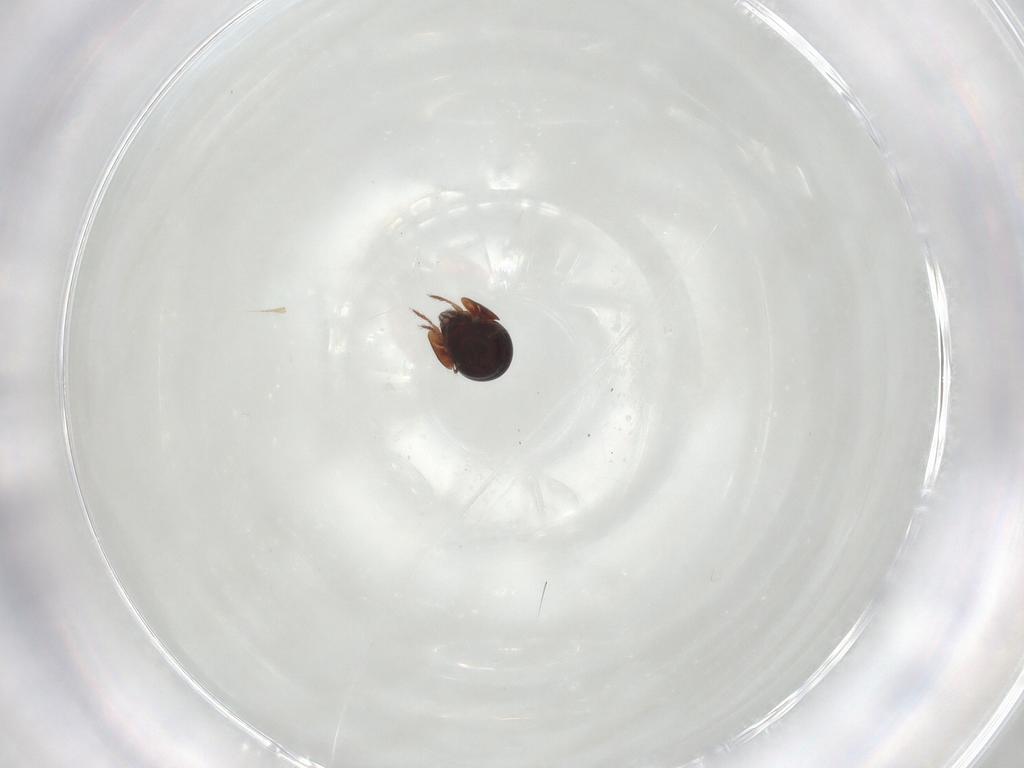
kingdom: Animalia
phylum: Arthropoda
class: Arachnida
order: Sarcoptiformes
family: Galumnidae
